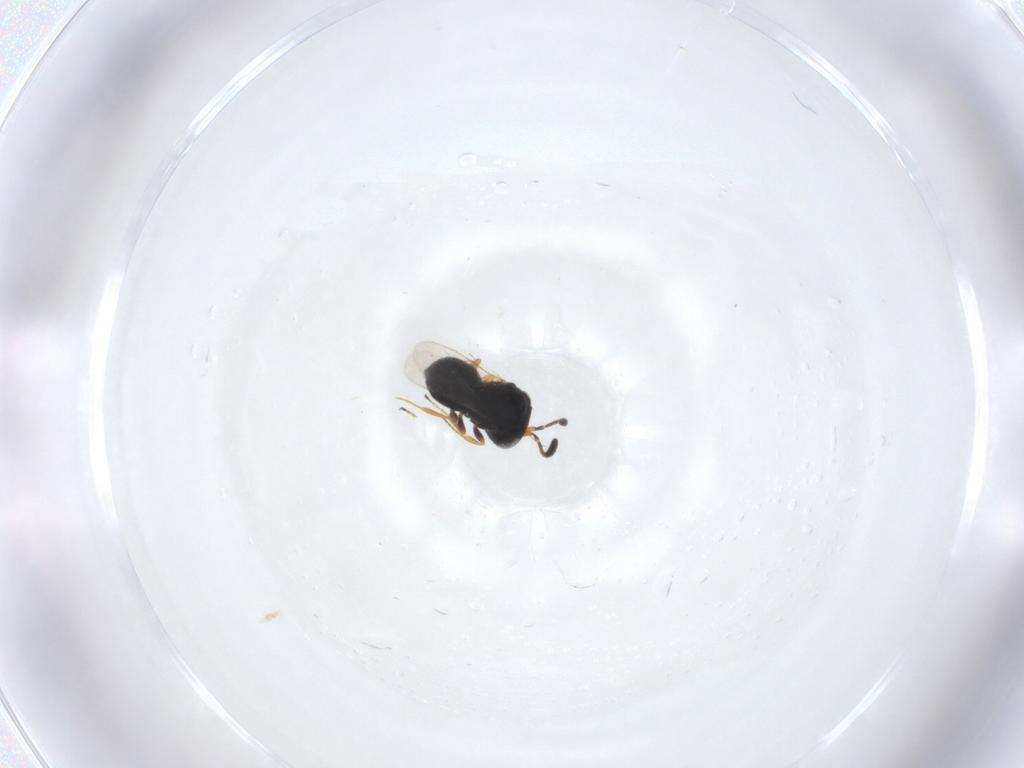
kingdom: Animalia
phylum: Arthropoda
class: Insecta
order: Hymenoptera
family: Scelionidae
